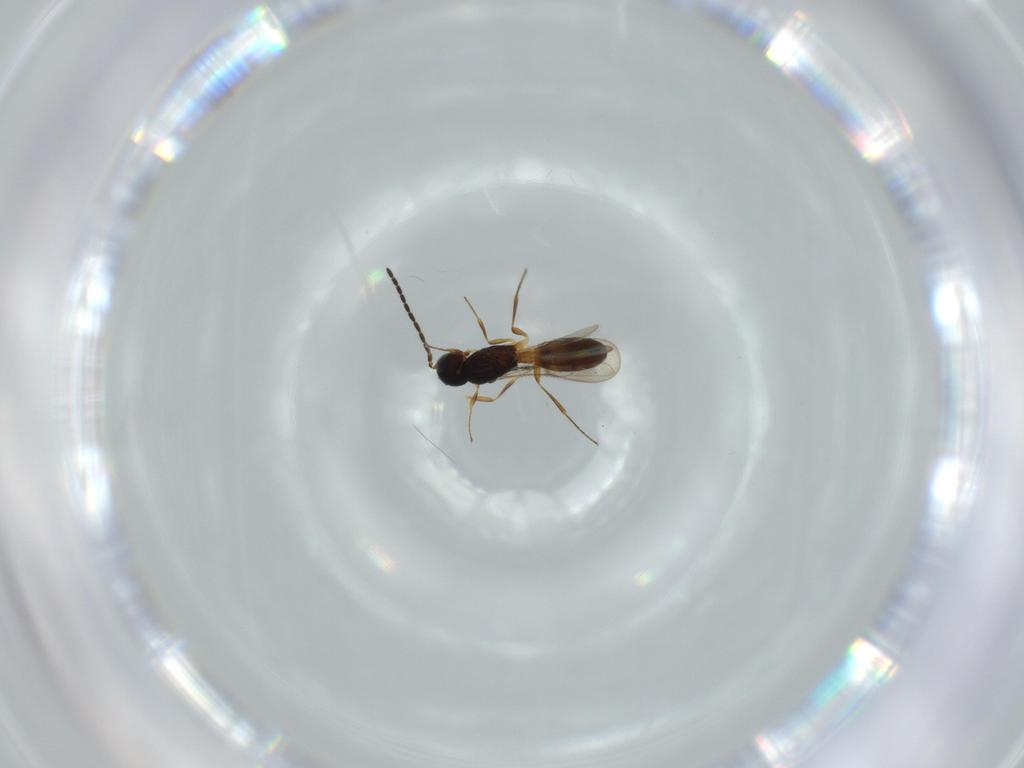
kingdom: Animalia
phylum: Arthropoda
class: Insecta
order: Hymenoptera
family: Scelionidae
